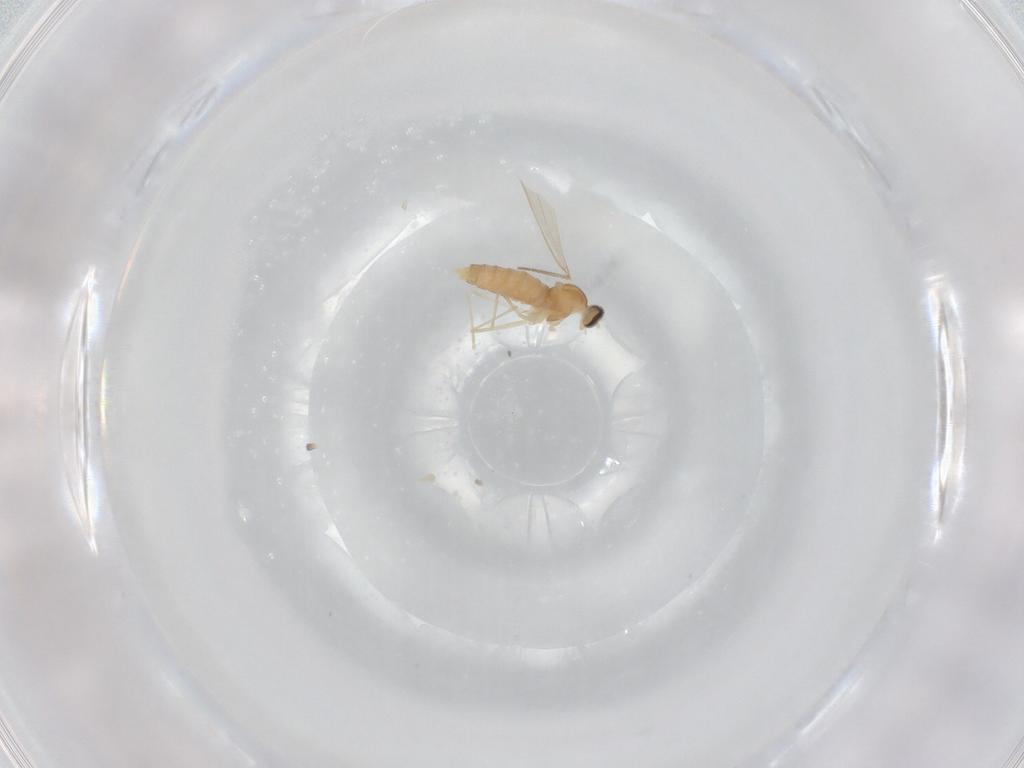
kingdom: Animalia
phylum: Arthropoda
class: Insecta
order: Diptera
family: Cecidomyiidae
